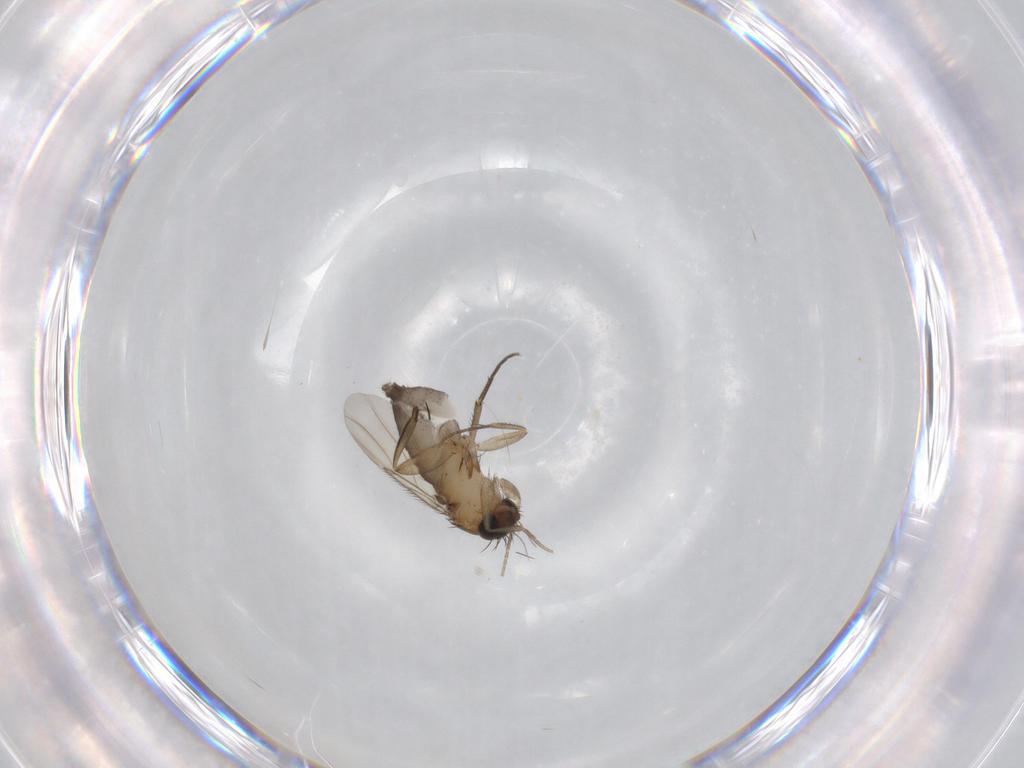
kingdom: Animalia
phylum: Arthropoda
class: Insecta
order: Diptera
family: Phoridae
